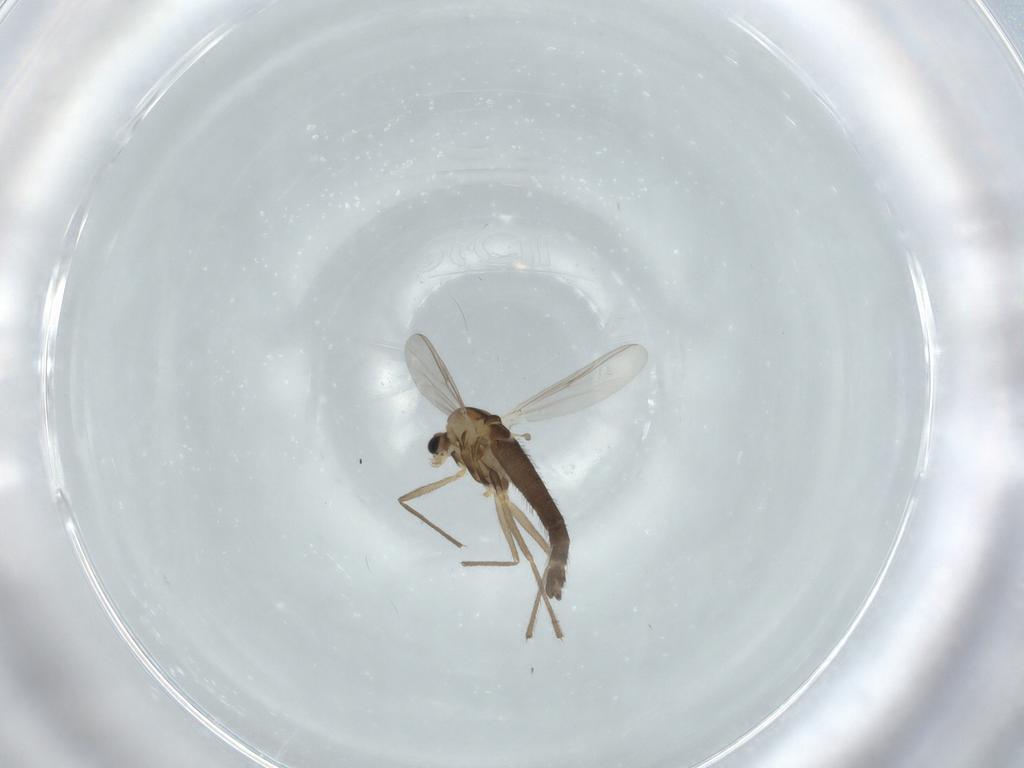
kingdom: Animalia
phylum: Arthropoda
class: Insecta
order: Diptera
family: Chironomidae
